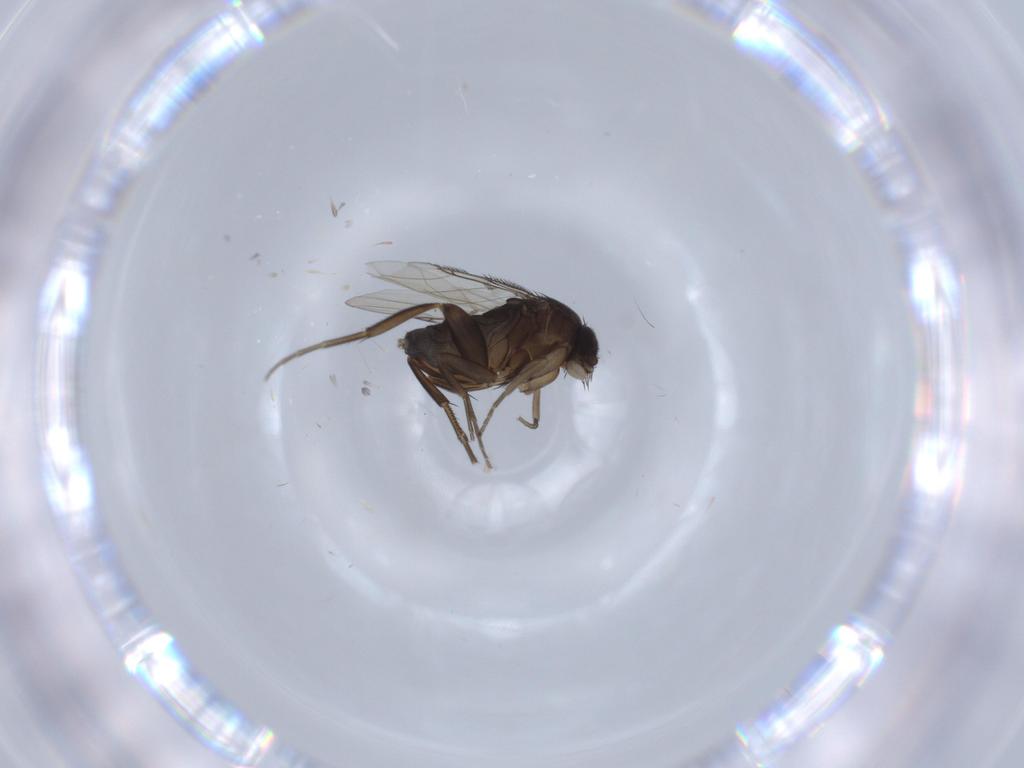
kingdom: Animalia
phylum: Arthropoda
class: Insecta
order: Diptera
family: Phoridae
